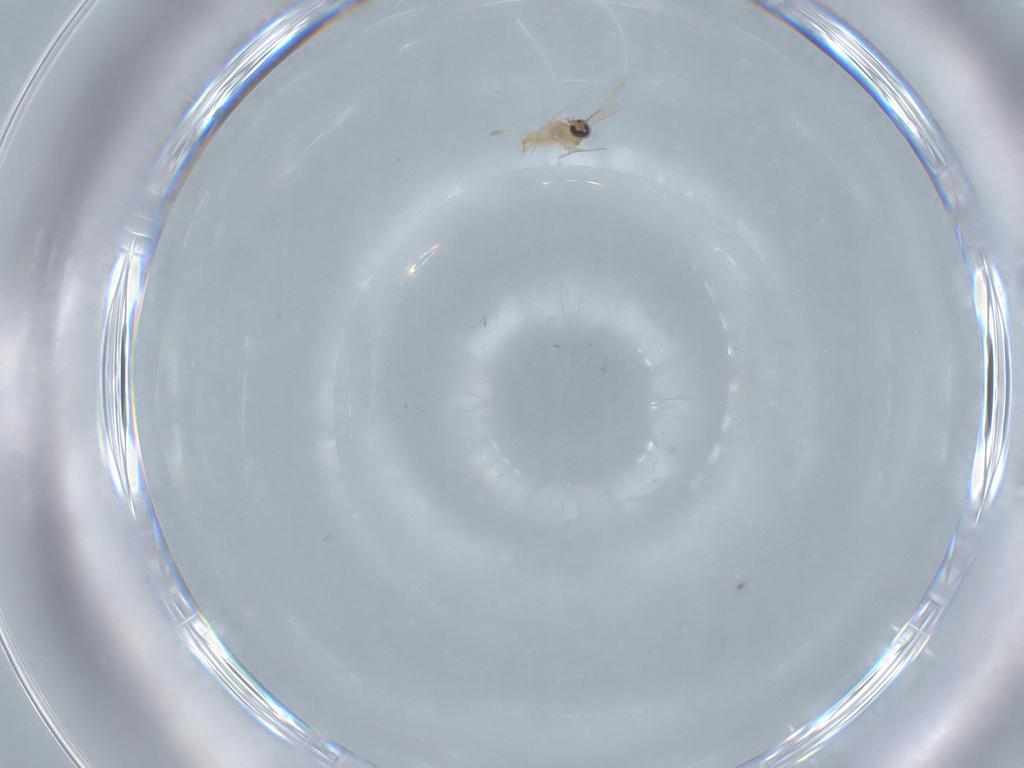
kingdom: Animalia
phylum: Arthropoda
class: Insecta
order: Diptera
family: Cecidomyiidae
